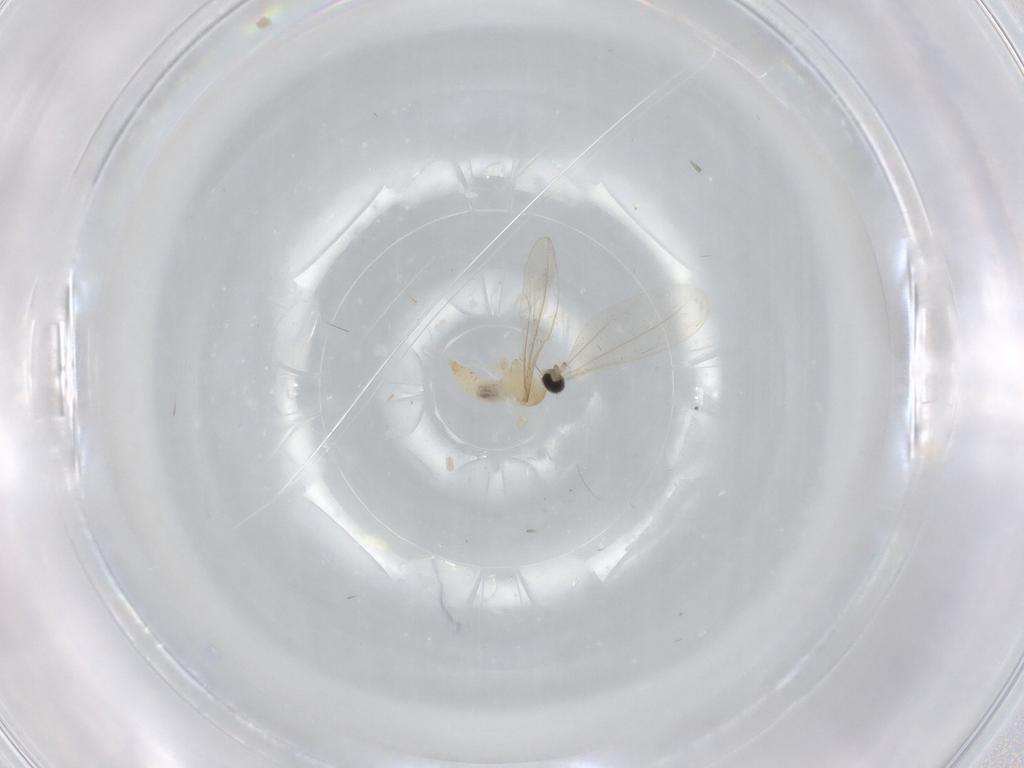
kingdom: Animalia
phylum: Arthropoda
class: Insecta
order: Diptera
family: Cecidomyiidae
